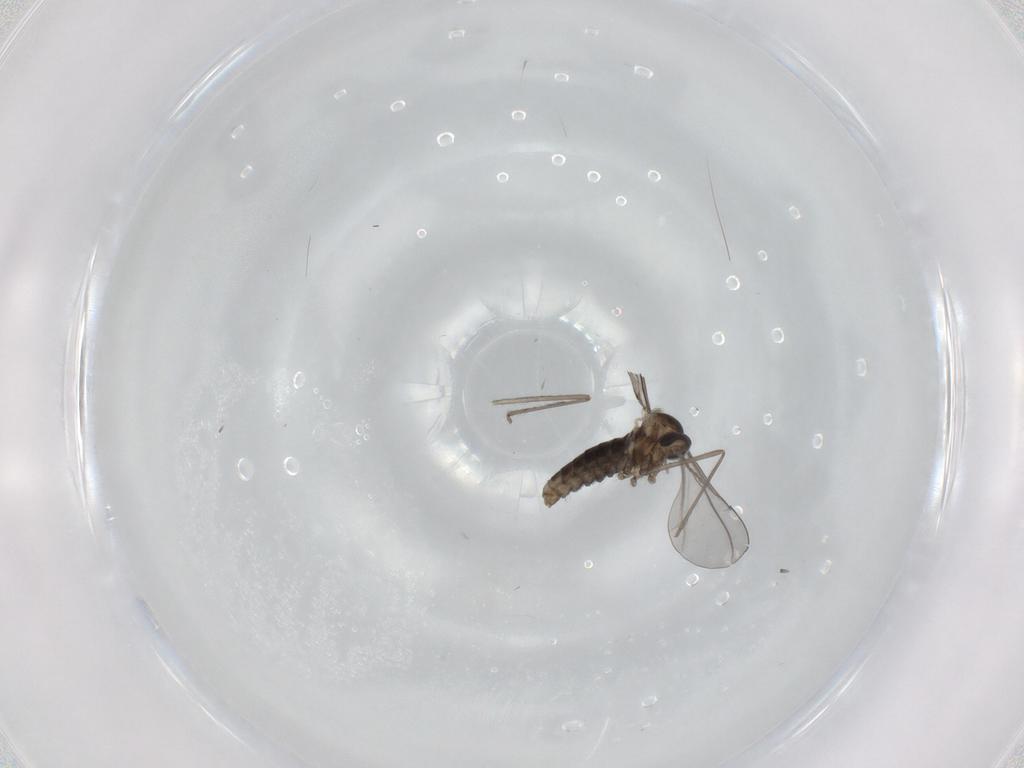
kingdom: Animalia
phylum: Arthropoda
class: Insecta
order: Diptera
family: Cecidomyiidae
